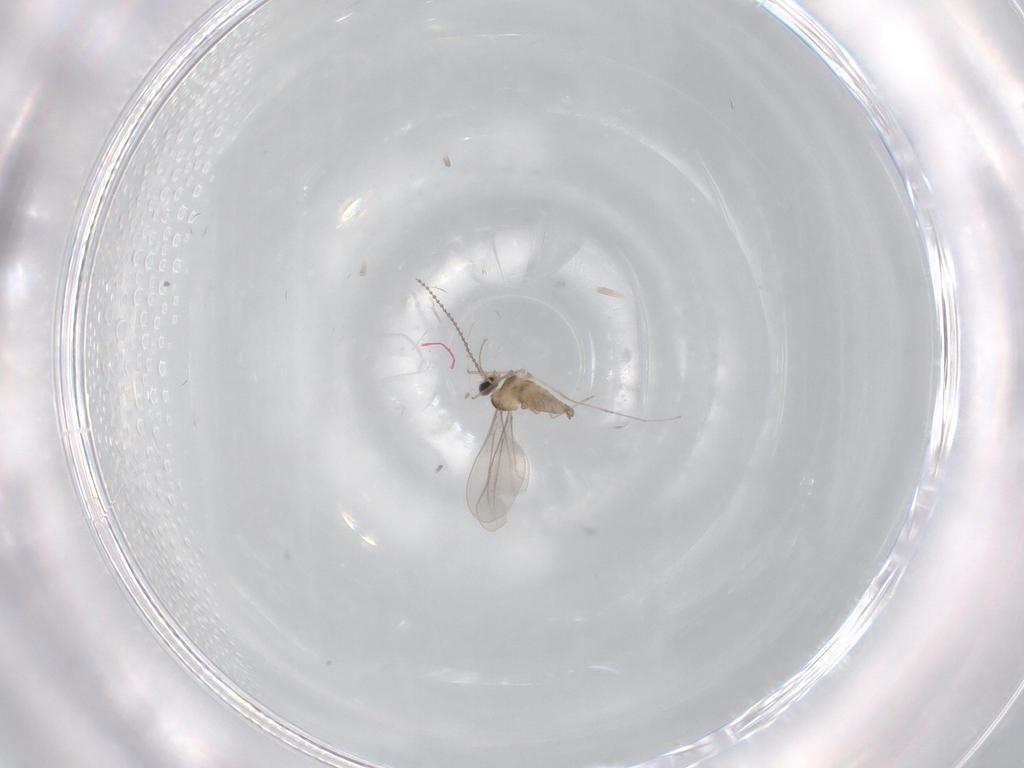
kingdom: Animalia
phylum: Arthropoda
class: Insecta
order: Diptera
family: Cecidomyiidae
